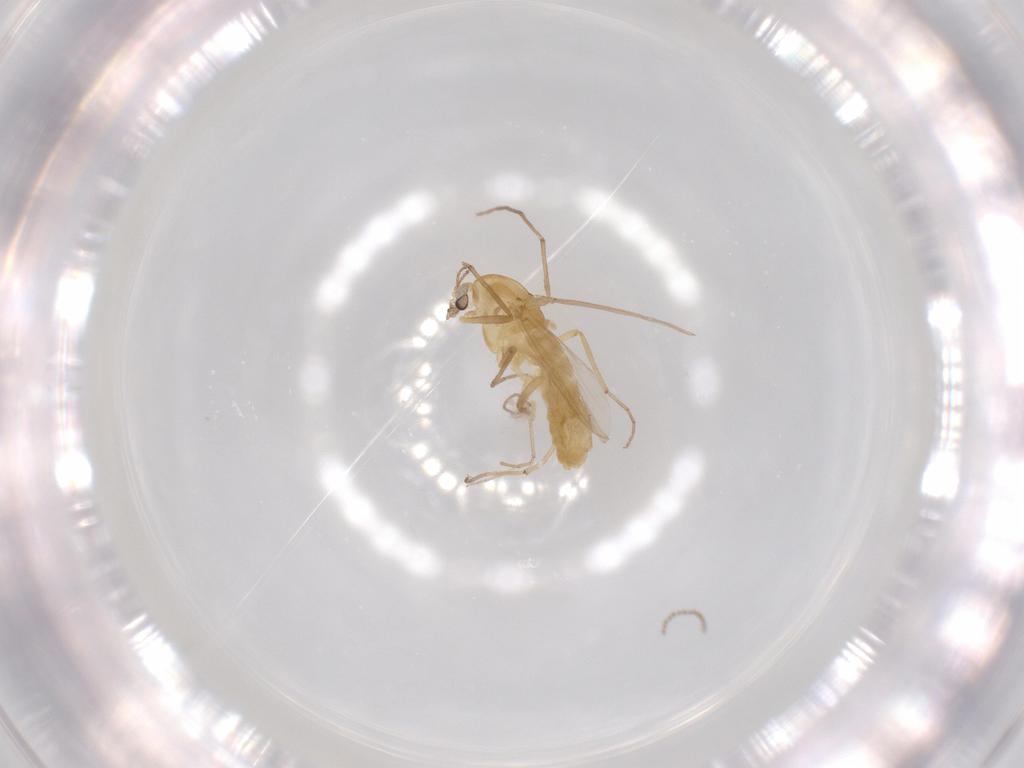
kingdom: Animalia
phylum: Arthropoda
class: Insecta
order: Diptera
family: Chironomidae
